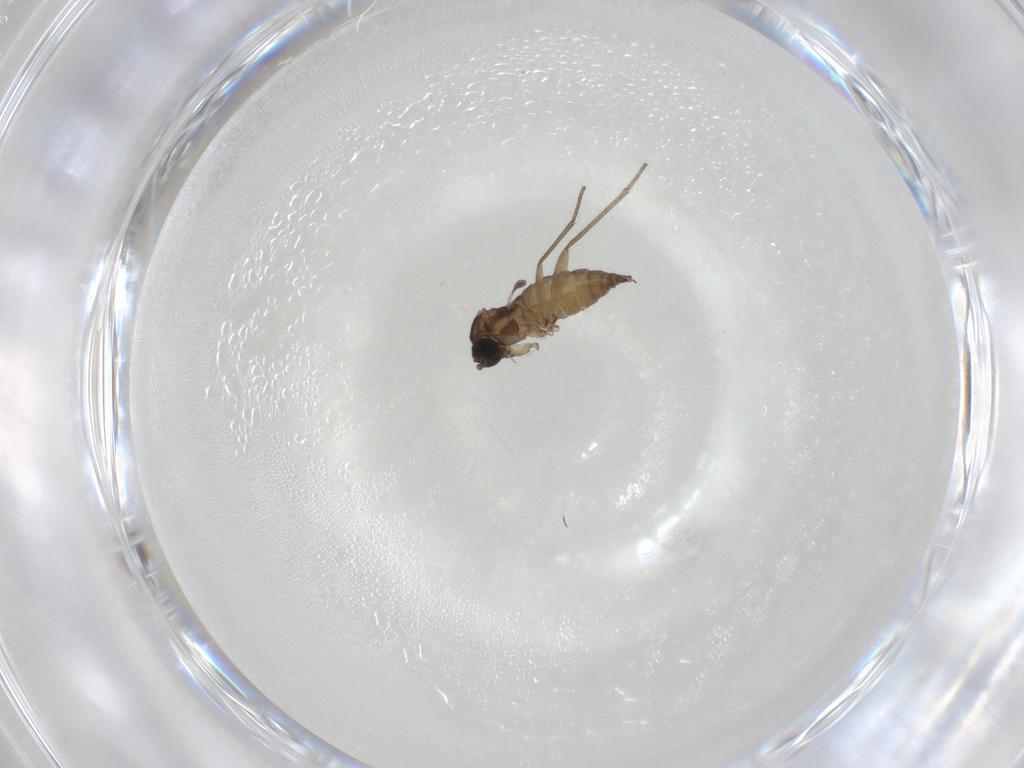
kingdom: Animalia
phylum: Arthropoda
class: Insecta
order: Diptera
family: Sciaridae
